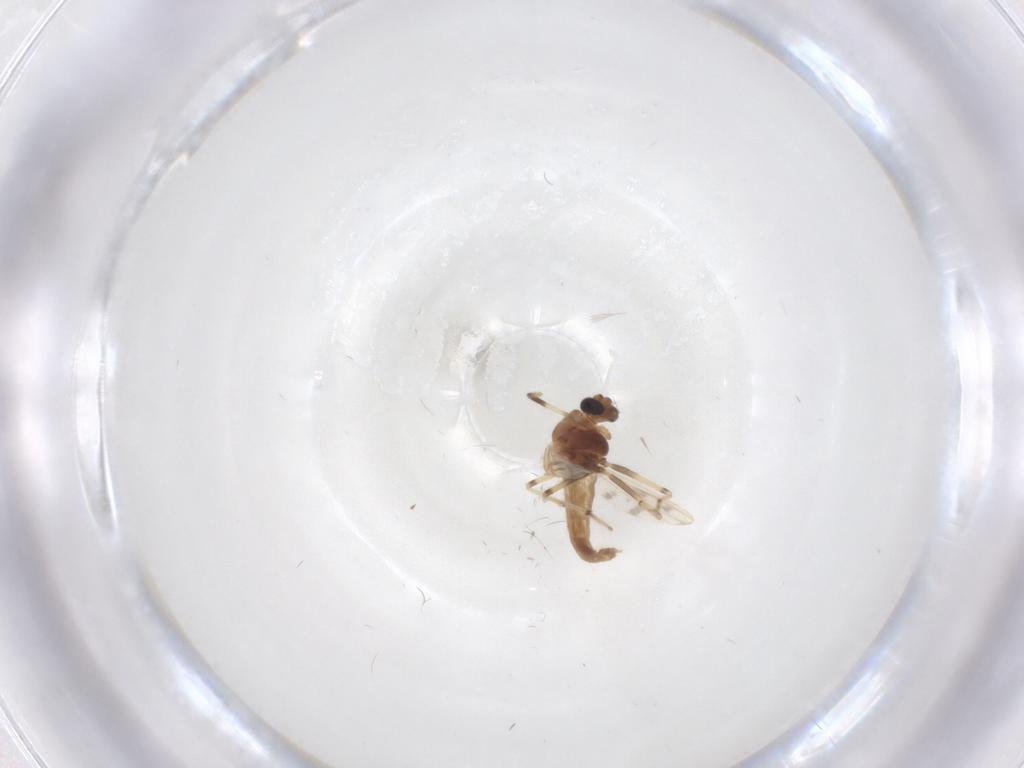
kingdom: Animalia
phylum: Arthropoda
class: Insecta
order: Diptera
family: Chironomidae
